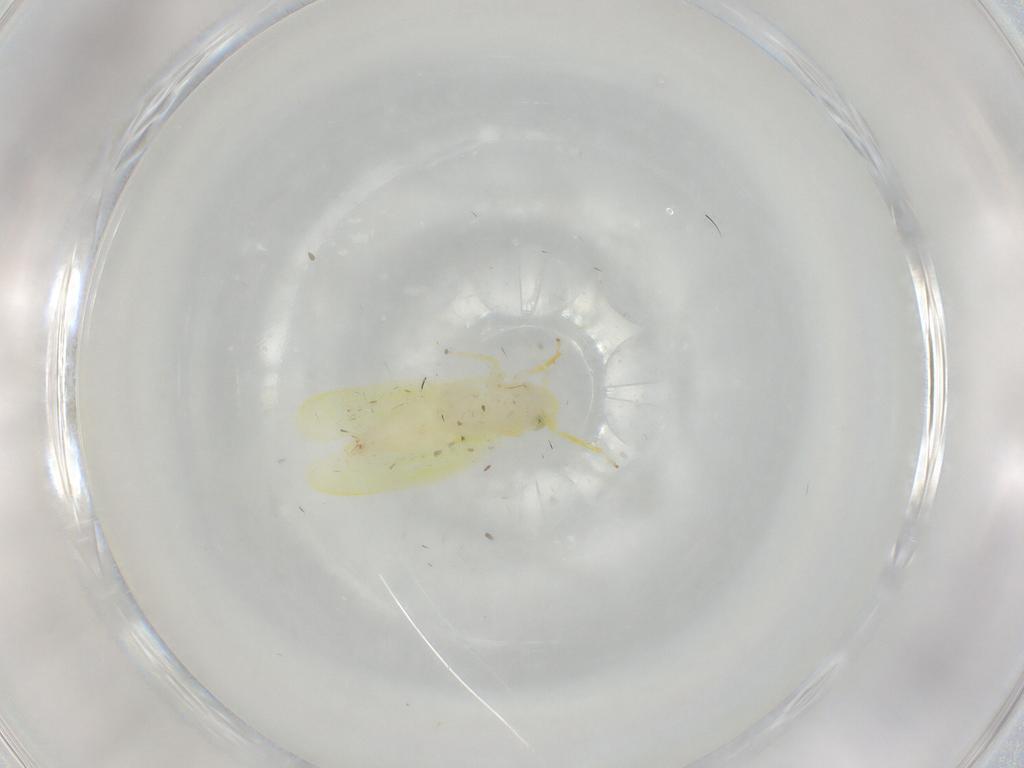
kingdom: Animalia
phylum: Arthropoda
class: Insecta
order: Hemiptera
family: Cicadellidae
